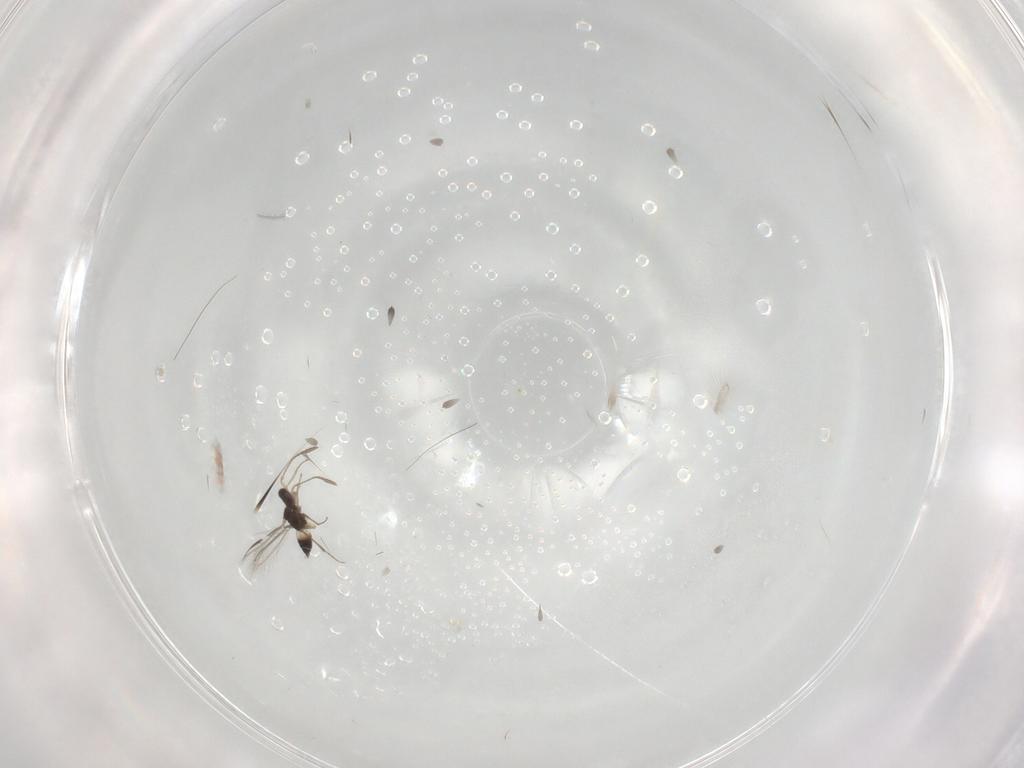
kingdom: Animalia
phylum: Arthropoda
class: Insecta
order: Hymenoptera
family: Mymaridae
